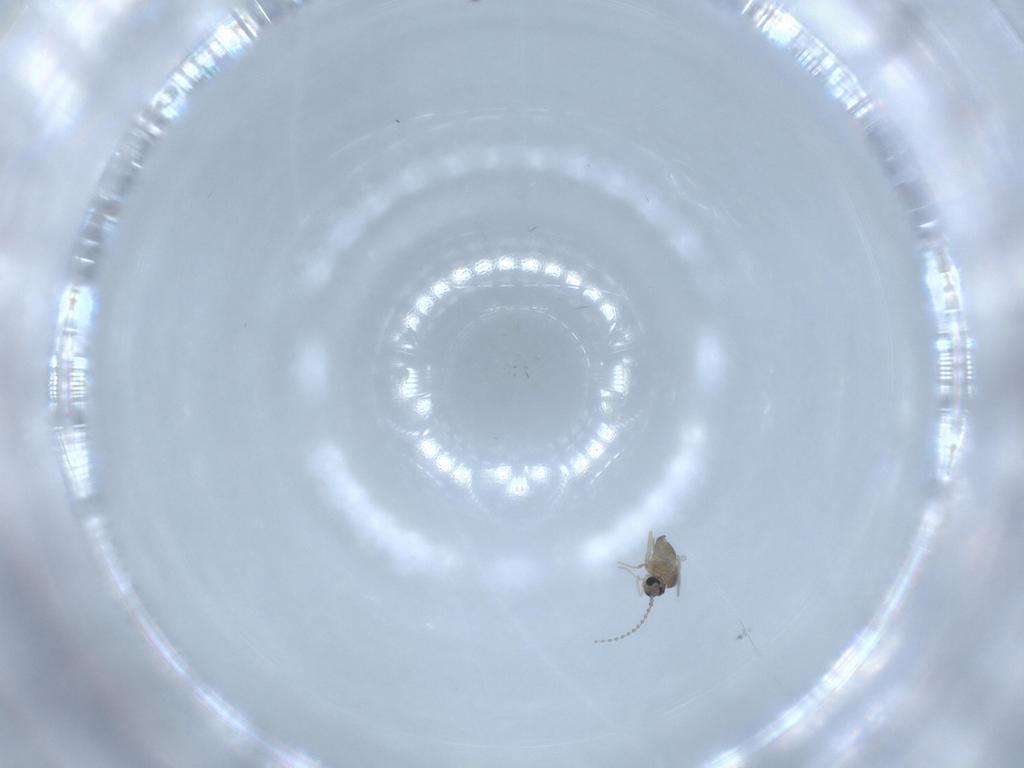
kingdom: Animalia
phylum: Arthropoda
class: Insecta
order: Diptera
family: Cecidomyiidae
